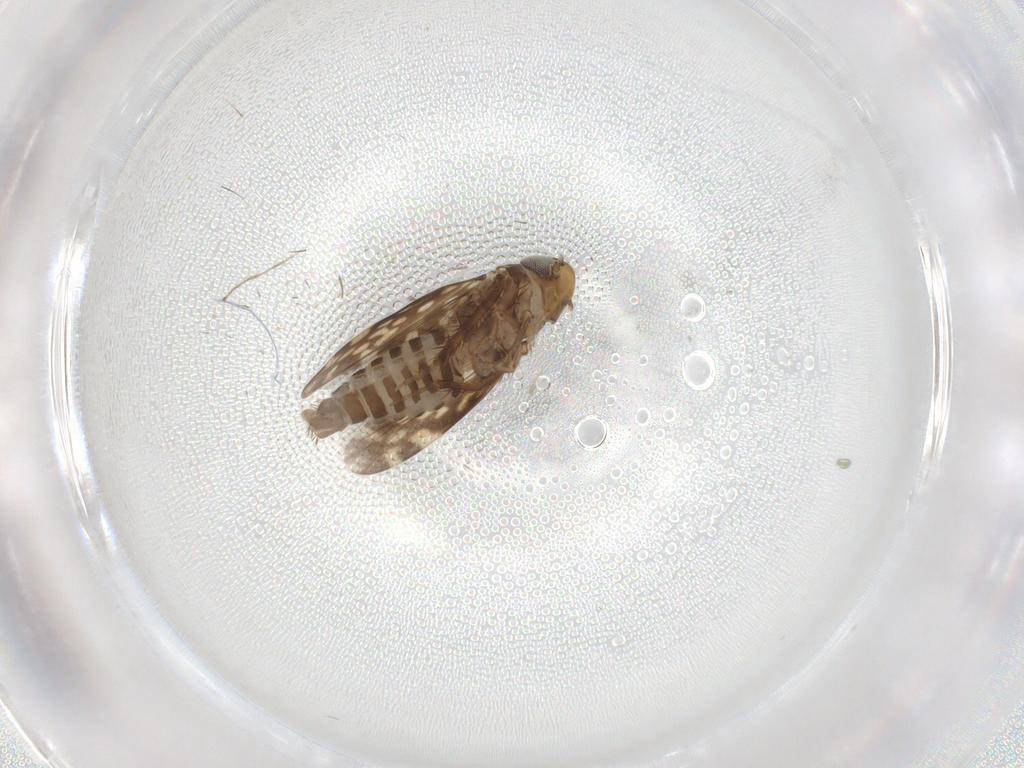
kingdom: Animalia
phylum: Arthropoda
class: Insecta
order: Hemiptera
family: Cicadellidae
